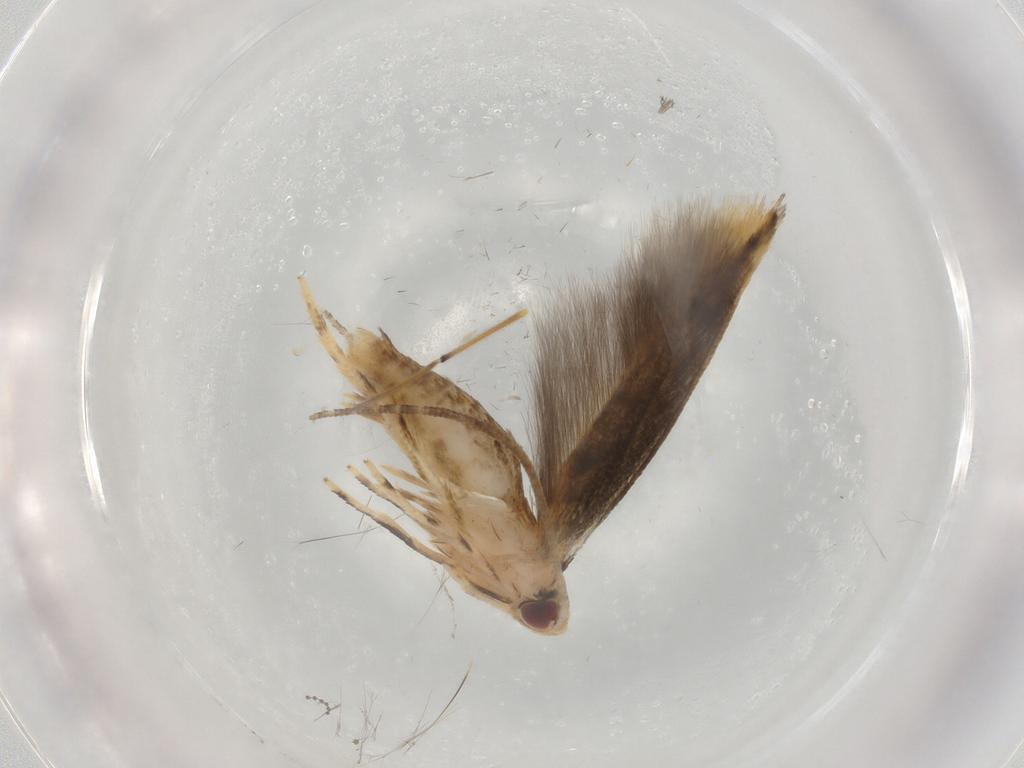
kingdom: Animalia
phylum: Arthropoda
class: Insecta
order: Lepidoptera
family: Momphidae
